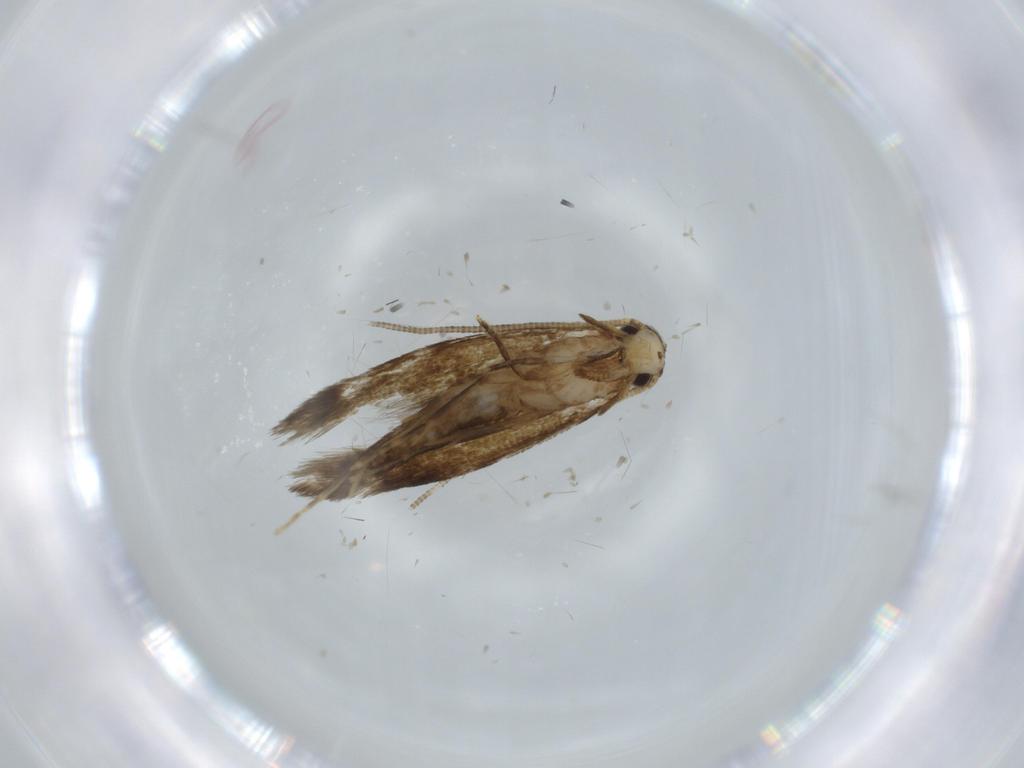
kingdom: Animalia
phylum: Arthropoda
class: Insecta
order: Lepidoptera
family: Tineidae
